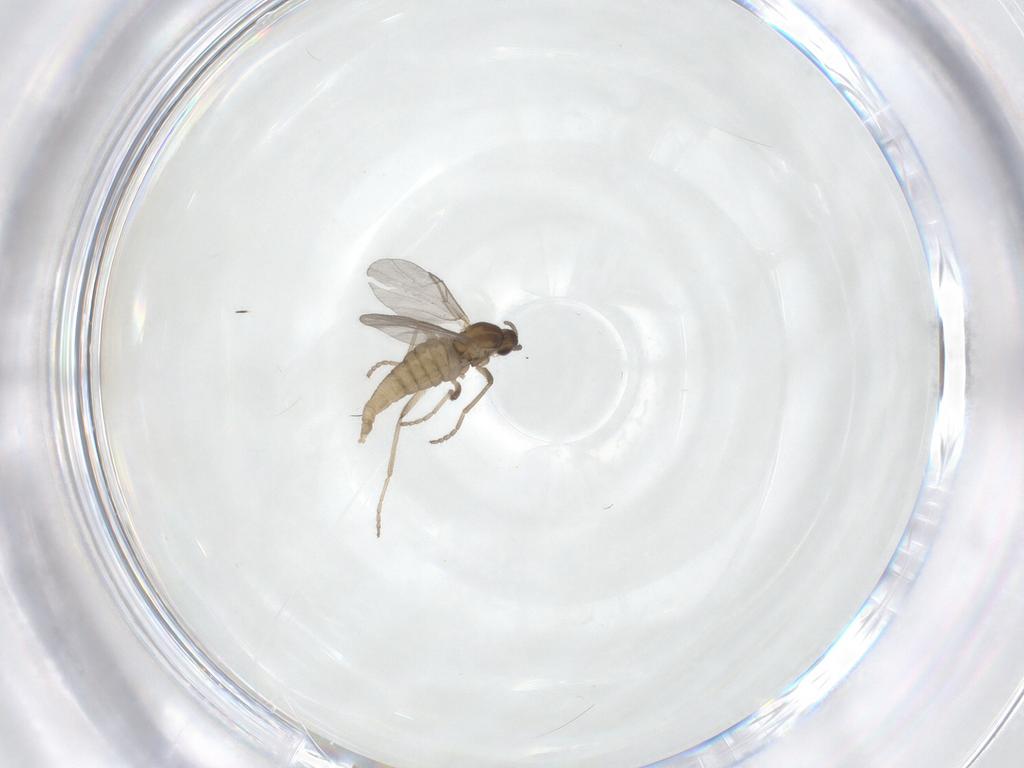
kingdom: Animalia
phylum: Arthropoda
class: Insecta
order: Diptera
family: Cecidomyiidae
